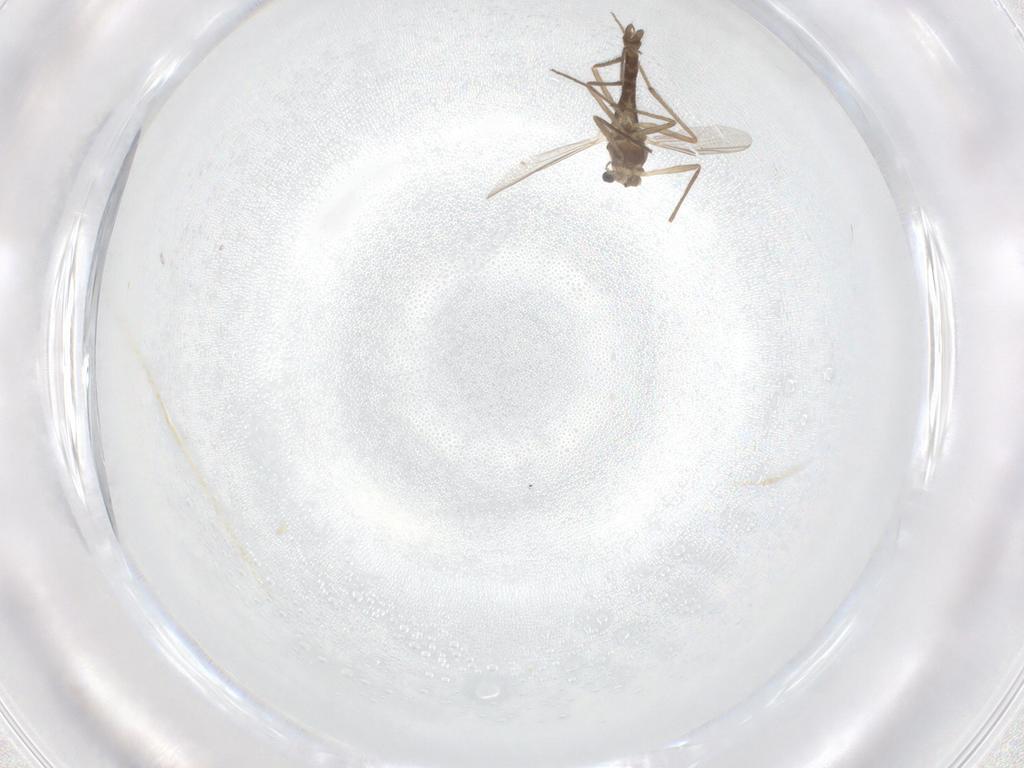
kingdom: Animalia
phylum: Arthropoda
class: Insecta
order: Diptera
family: Chironomidae
